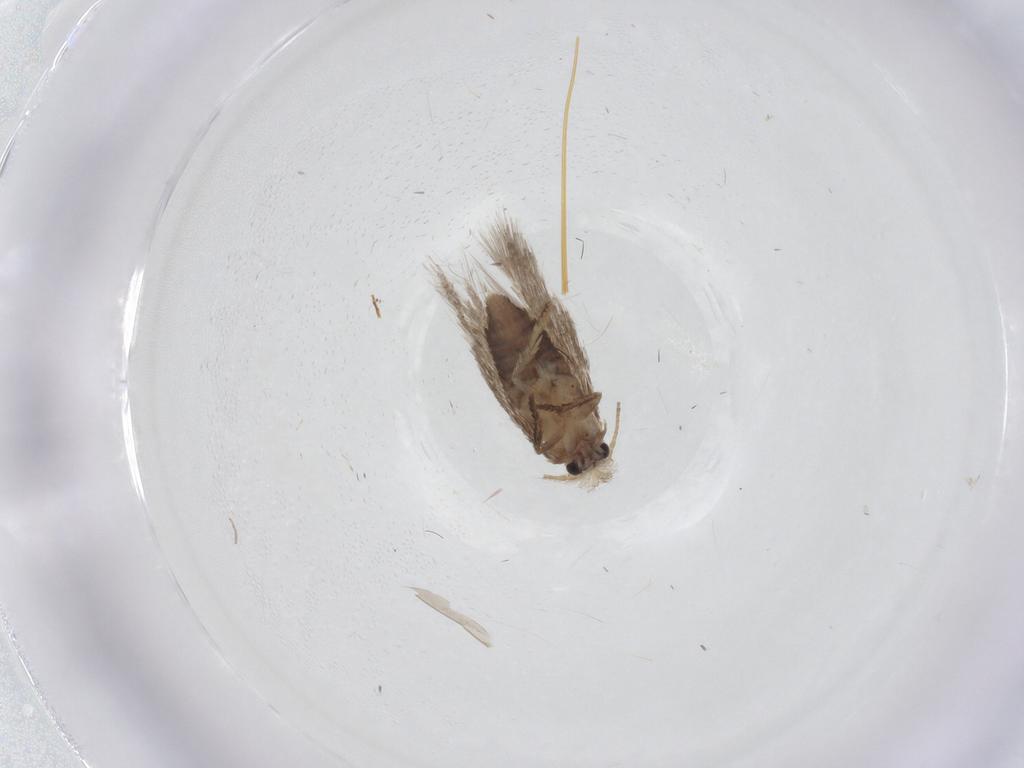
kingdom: Animalia
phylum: Arthropoda
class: Insecta
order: Lepidoptera
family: Nepticulidae
